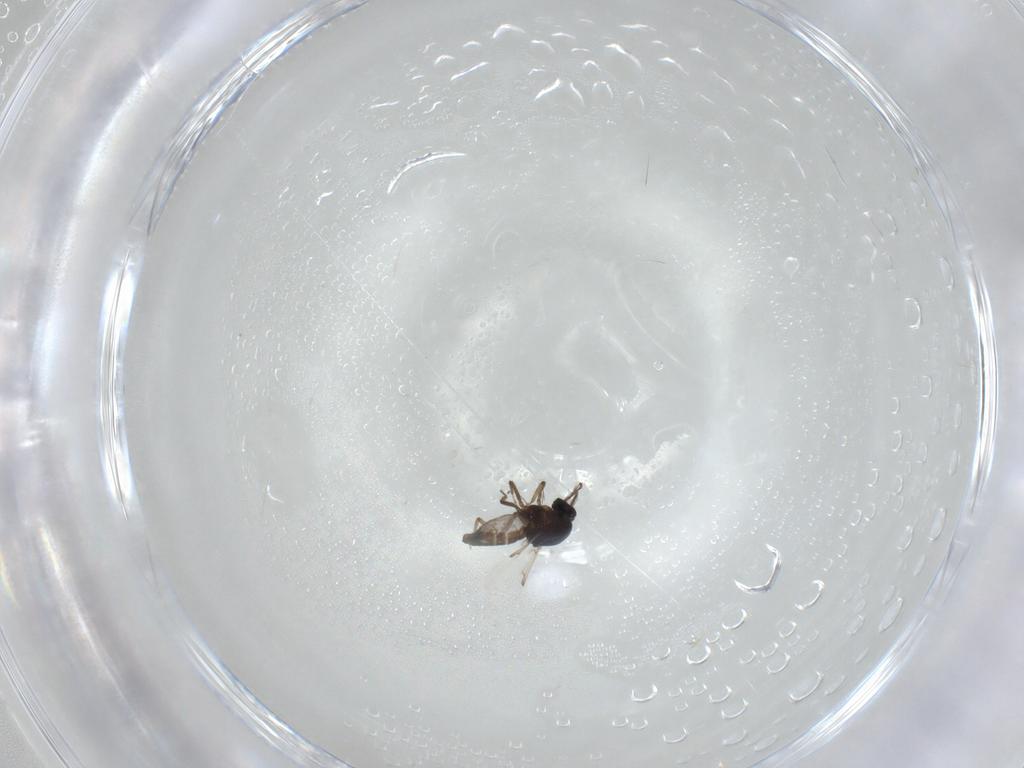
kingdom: Animalia
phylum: Arthropoda
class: Insecta
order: Diptera
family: Ceratopogonidae
